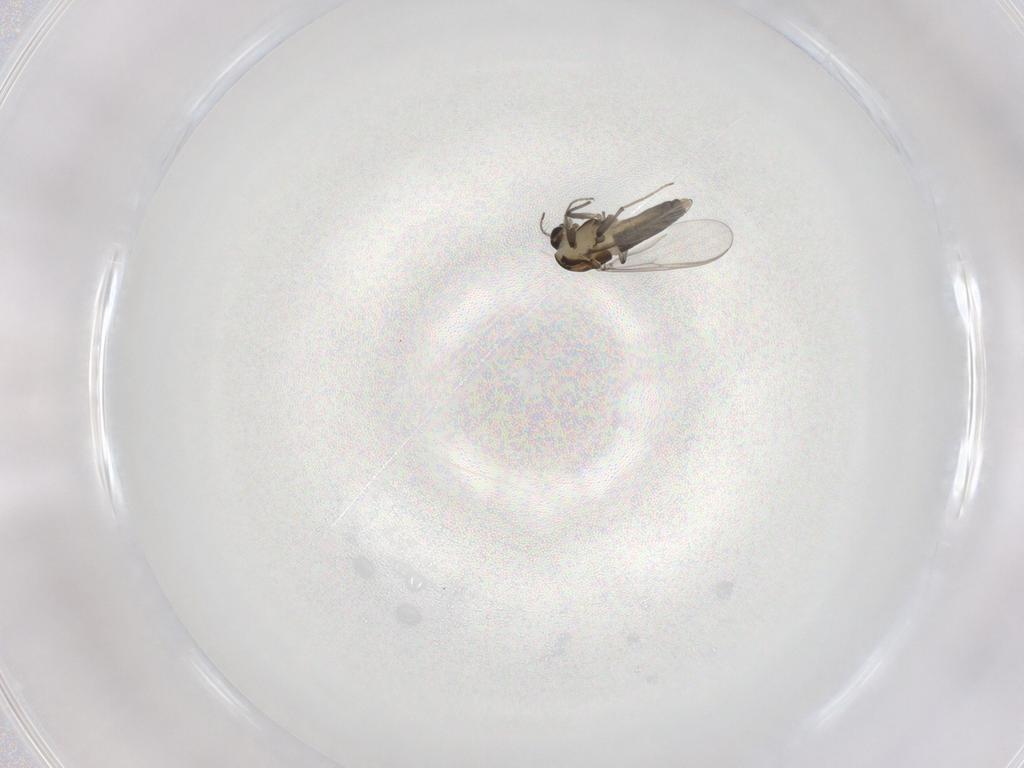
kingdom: Animalia
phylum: Arthropoda
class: Insecta
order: Diptera
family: Chironomidae
